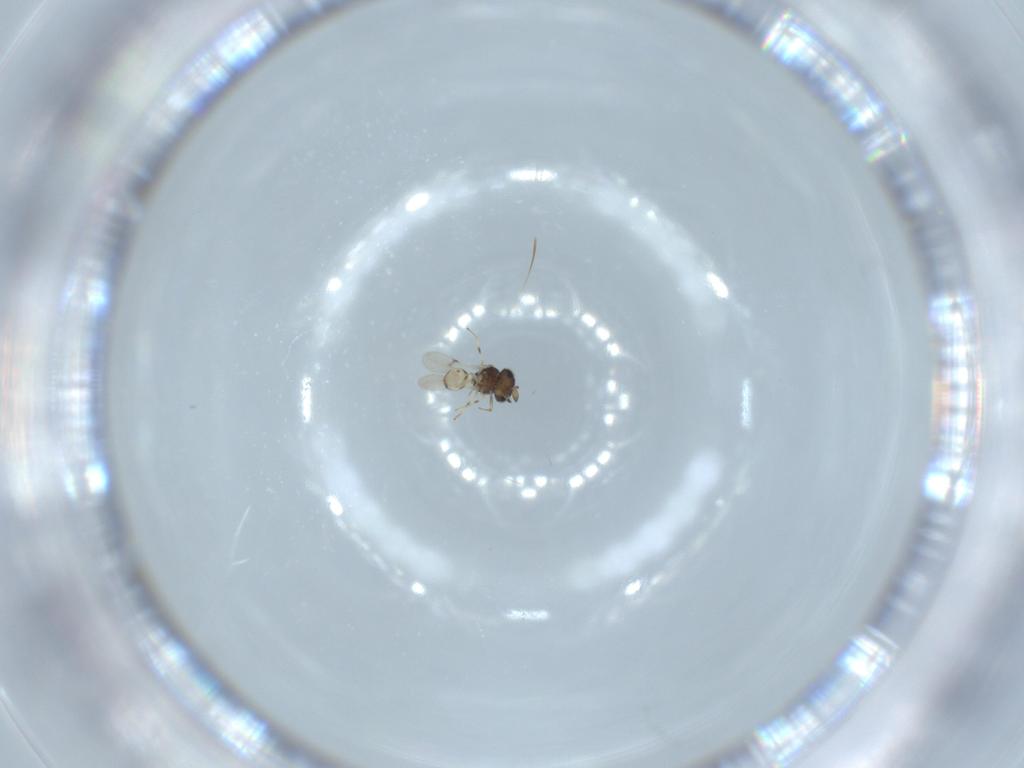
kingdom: Animalia
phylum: Arthropoda
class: Insecta
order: Hymenoptera
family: Scelionidae
